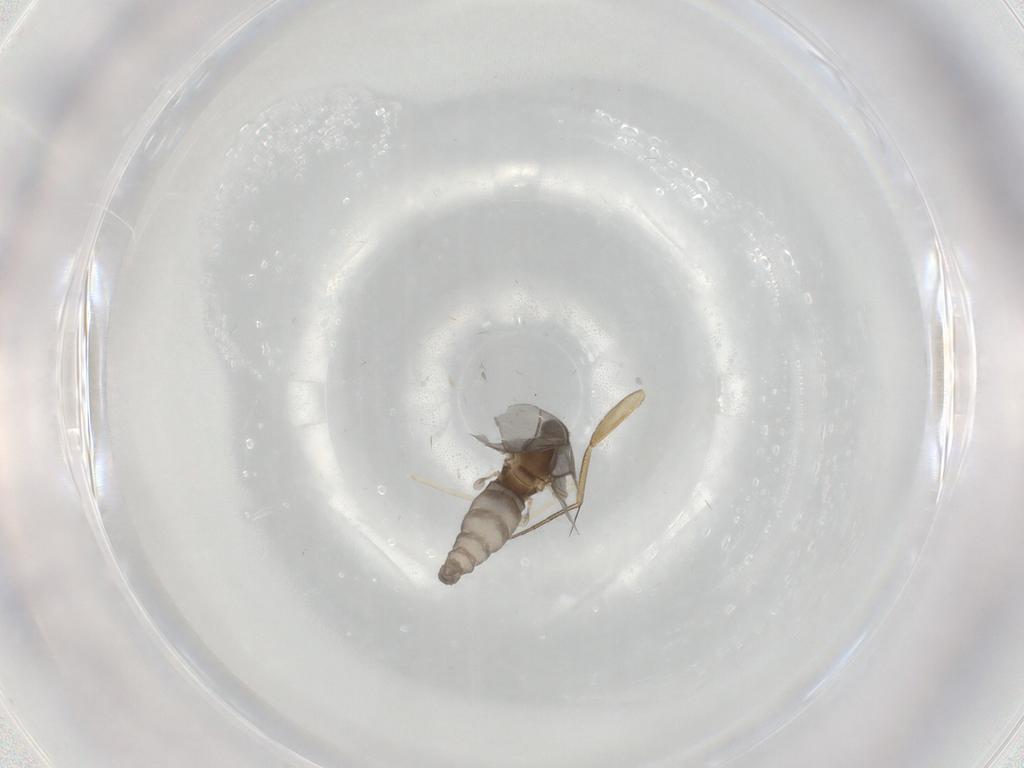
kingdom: Animalia
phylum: Arthropoda
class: Insecta
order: Diptera
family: Cecidomyiidae
